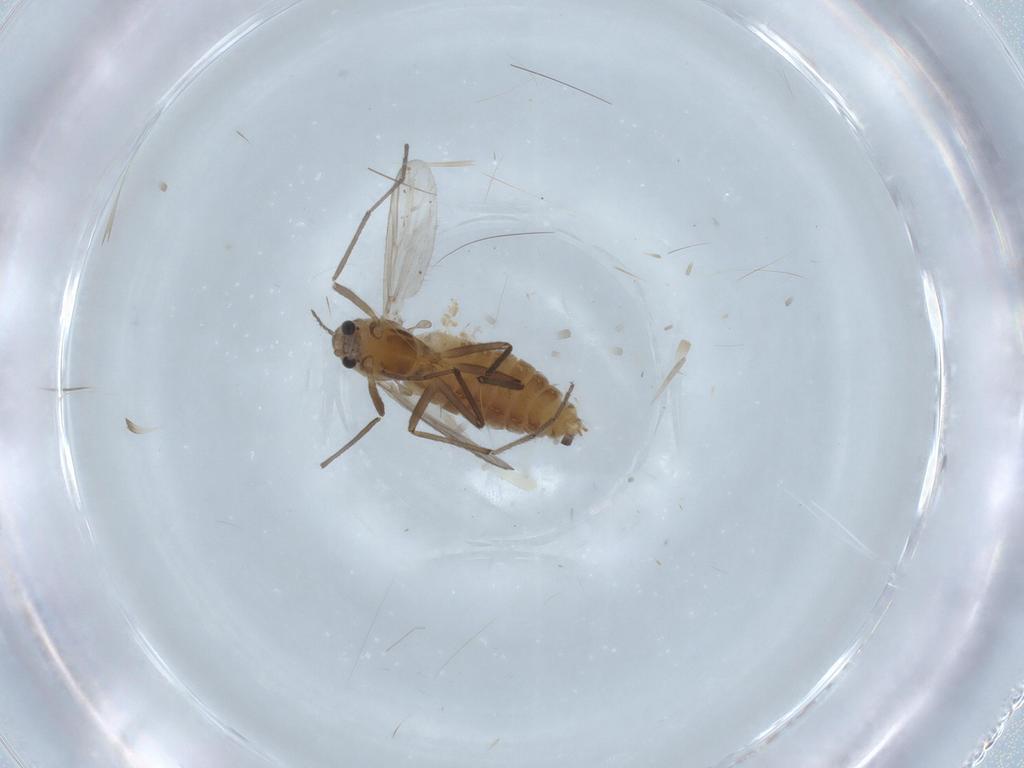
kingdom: Animalia
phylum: Arthropoda
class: Insecta
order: Diptera
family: Chironomidae
